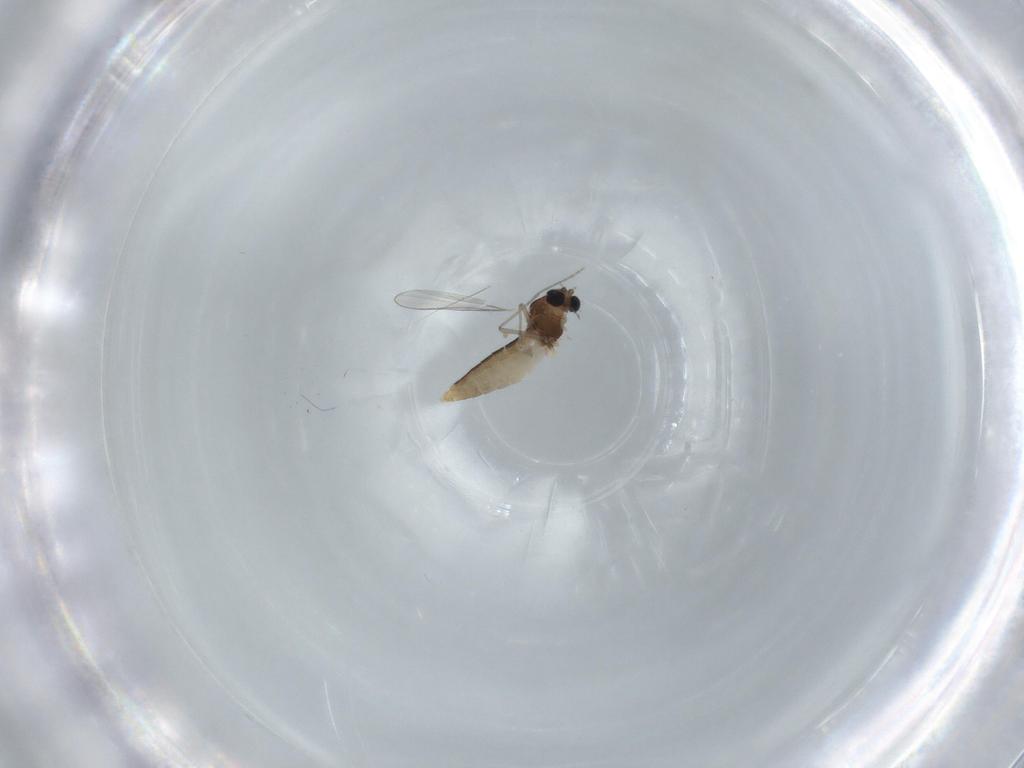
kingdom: Animalia
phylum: Arthropoda
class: Insecta
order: Diptera
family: Chironomidae
